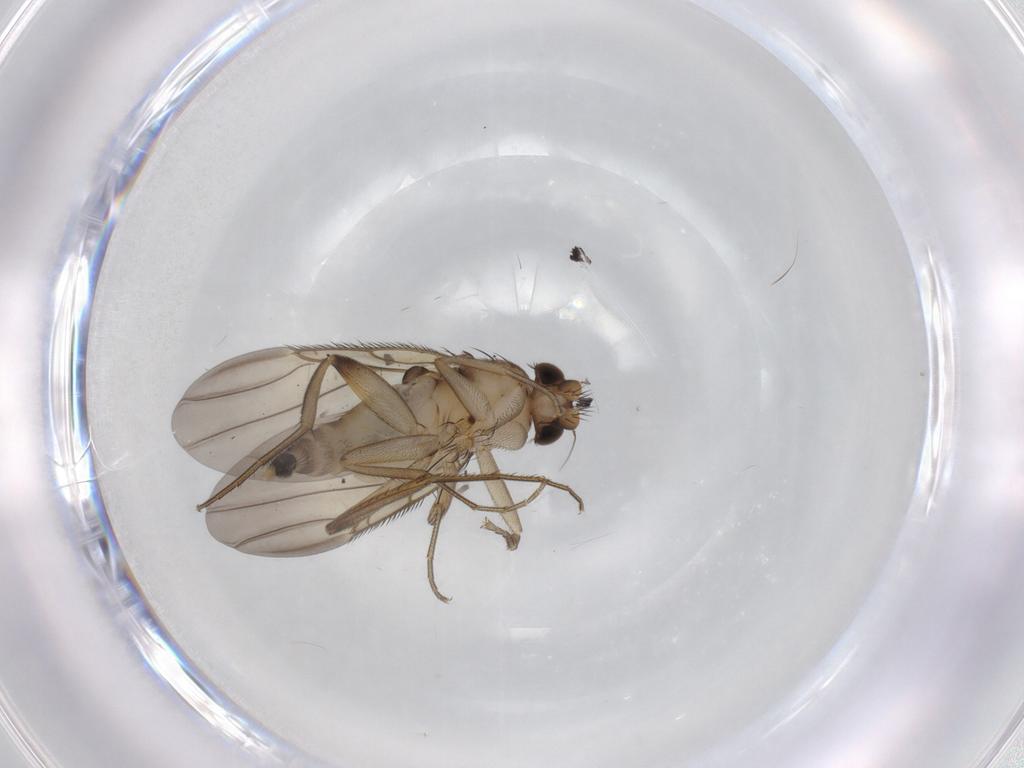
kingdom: Animalia
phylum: Arthropoda
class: Insecta
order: Diptera
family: Phoridae
